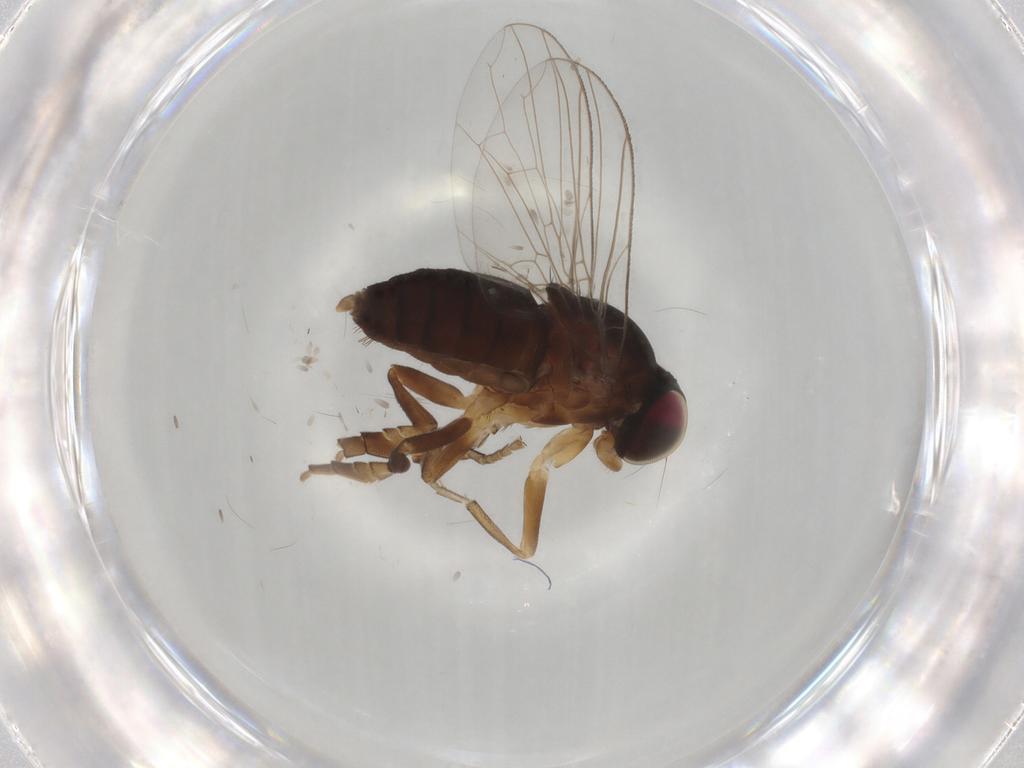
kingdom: Animalia
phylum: Arthropoda
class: Insecta
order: Diptera
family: Platypezidae
